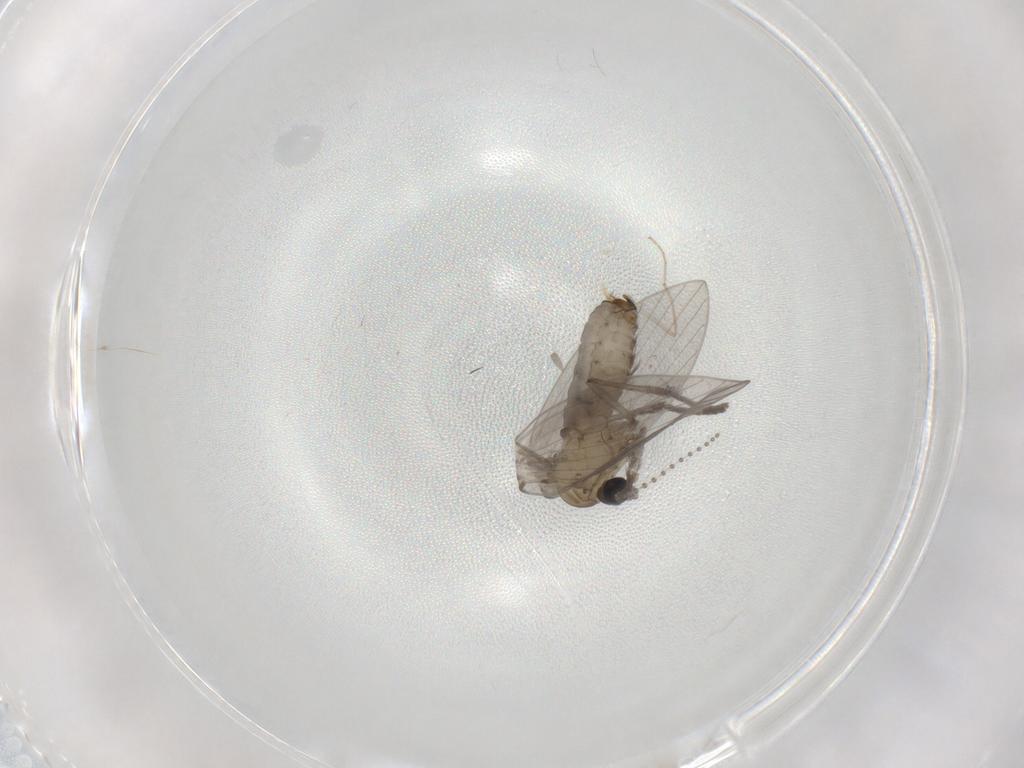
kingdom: Animalia
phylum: Arthropoda
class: Insecta
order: Diptera
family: Psychodidae
